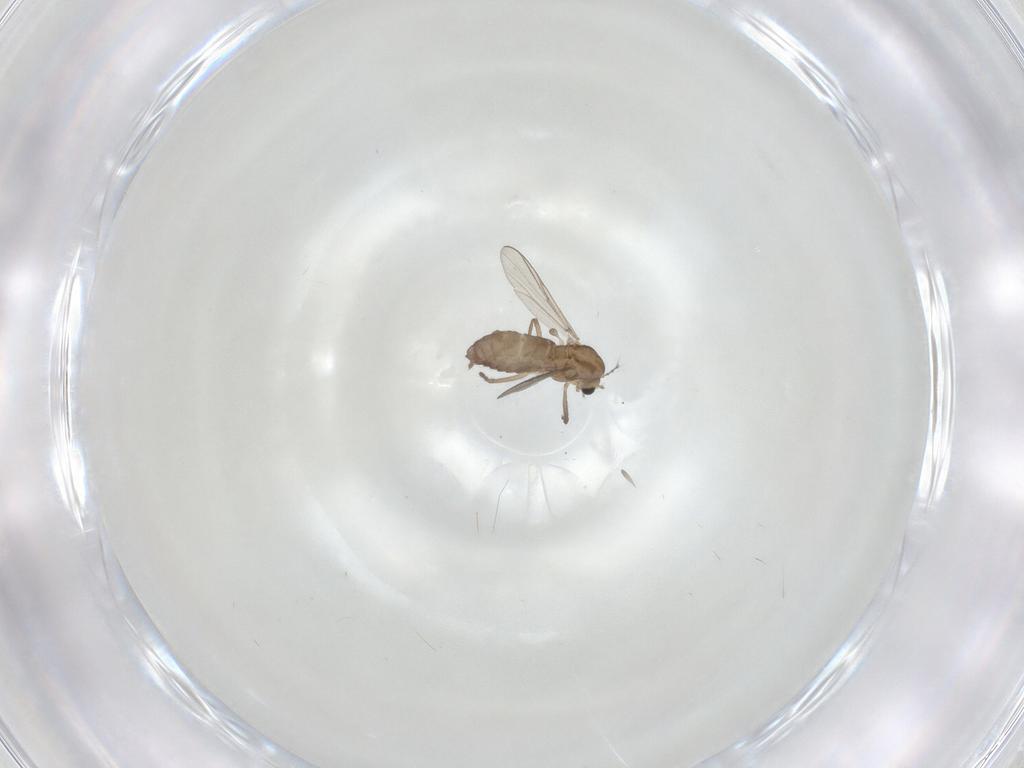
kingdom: Animalia
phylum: Arthropoda
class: Insecta
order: Diptera
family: Chironomidae
